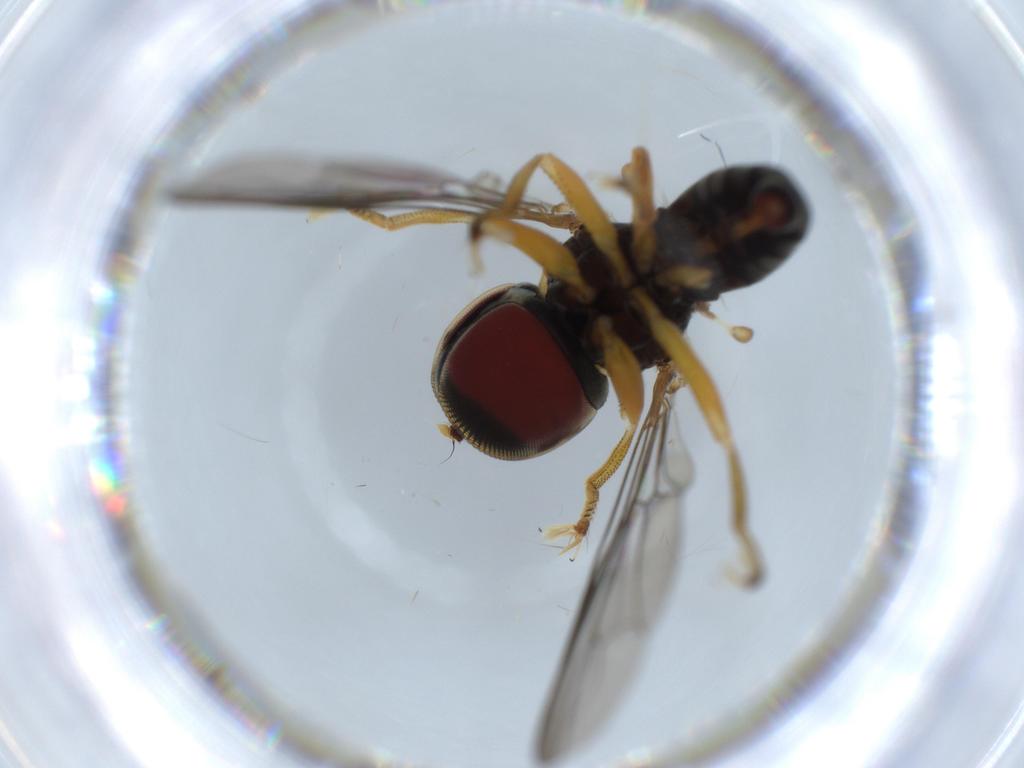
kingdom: Animalia
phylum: Arthropoda
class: Insecta
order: Diptera
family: Pipunculidae
